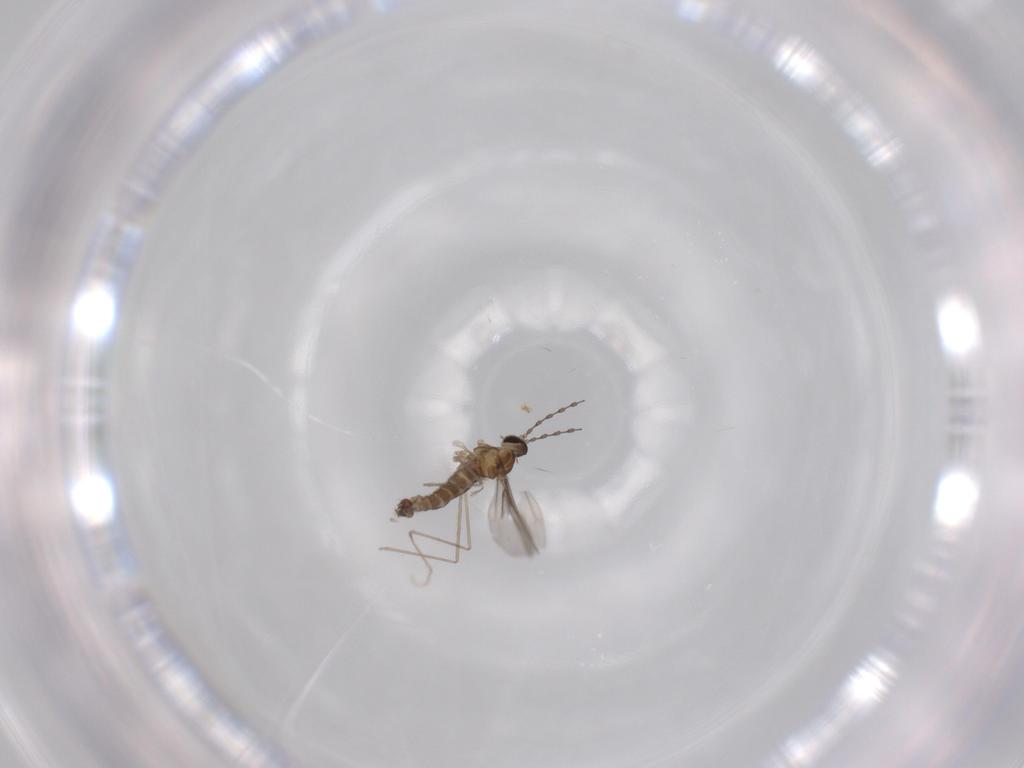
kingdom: Animalia
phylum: Arthropoda
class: Insecta
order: Diptera
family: Cecidomyiidae
